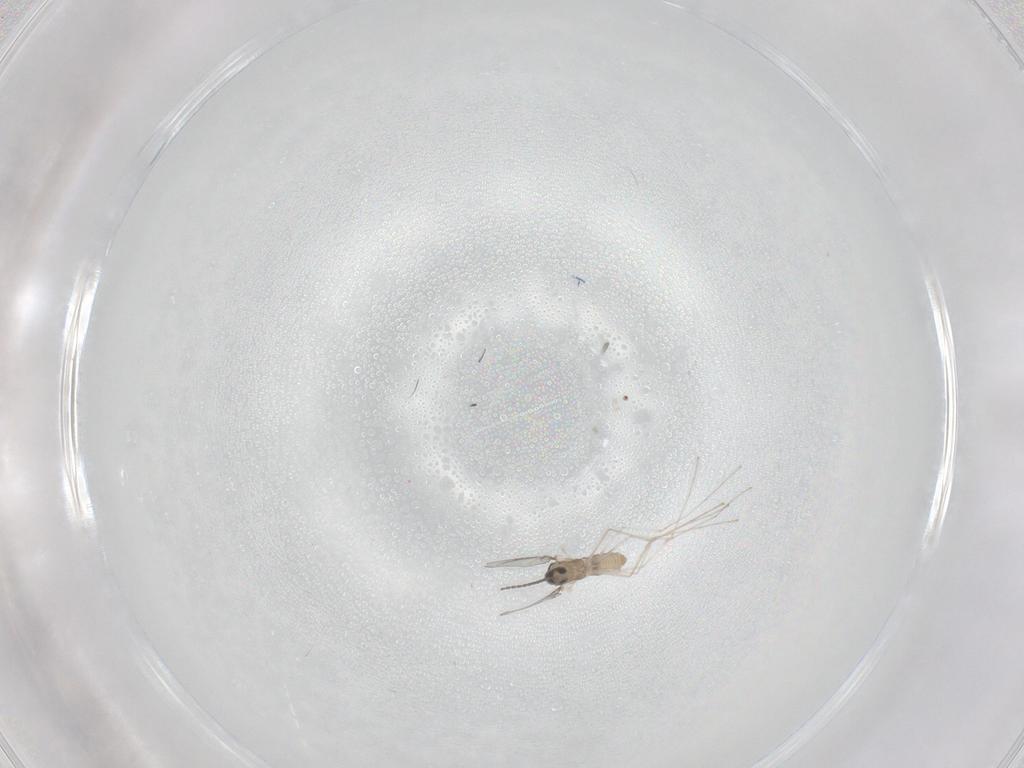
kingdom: Animalia
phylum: Arthropoda
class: Insecta
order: Diptera
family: Cecidomyiidae
